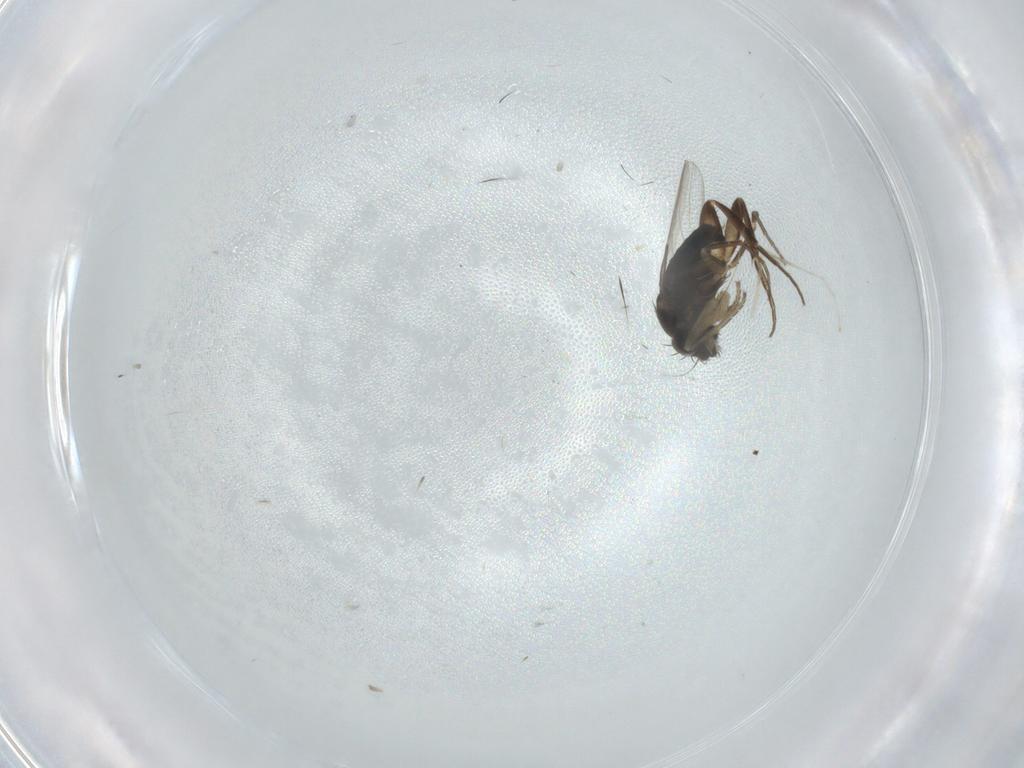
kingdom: Animalia
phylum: Arthropoda
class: Insecta
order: Diptera
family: Phoridae
